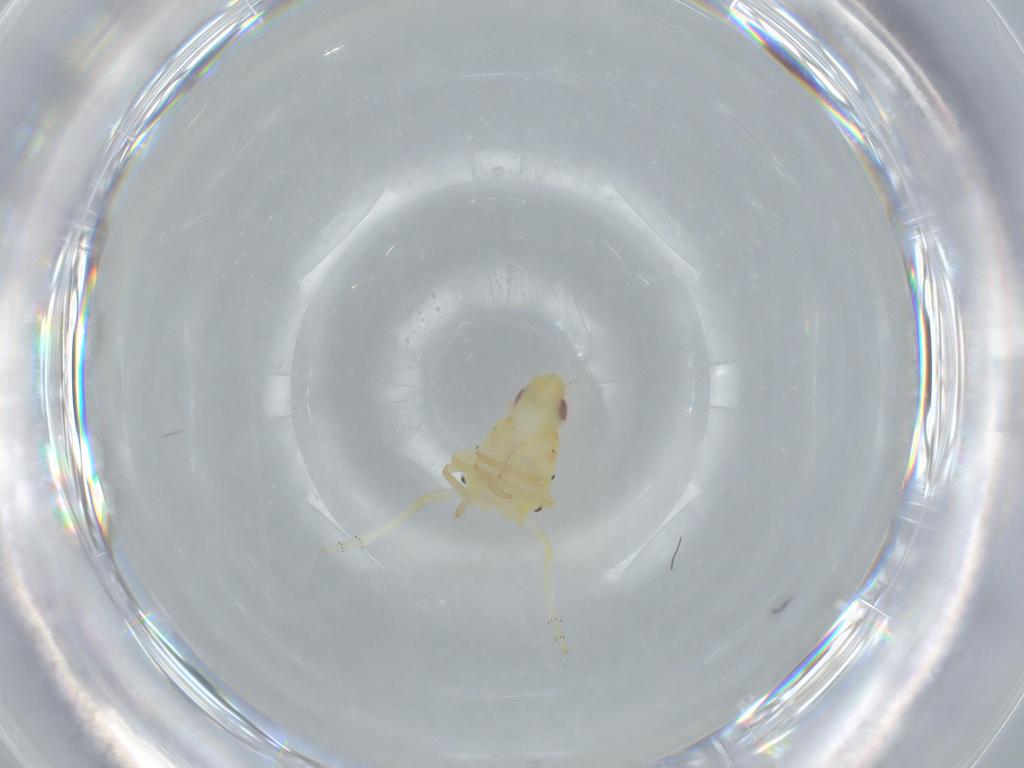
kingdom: Animalia
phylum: Arthropoda
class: Insecta
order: Hemiptera
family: Tropiduchidae
